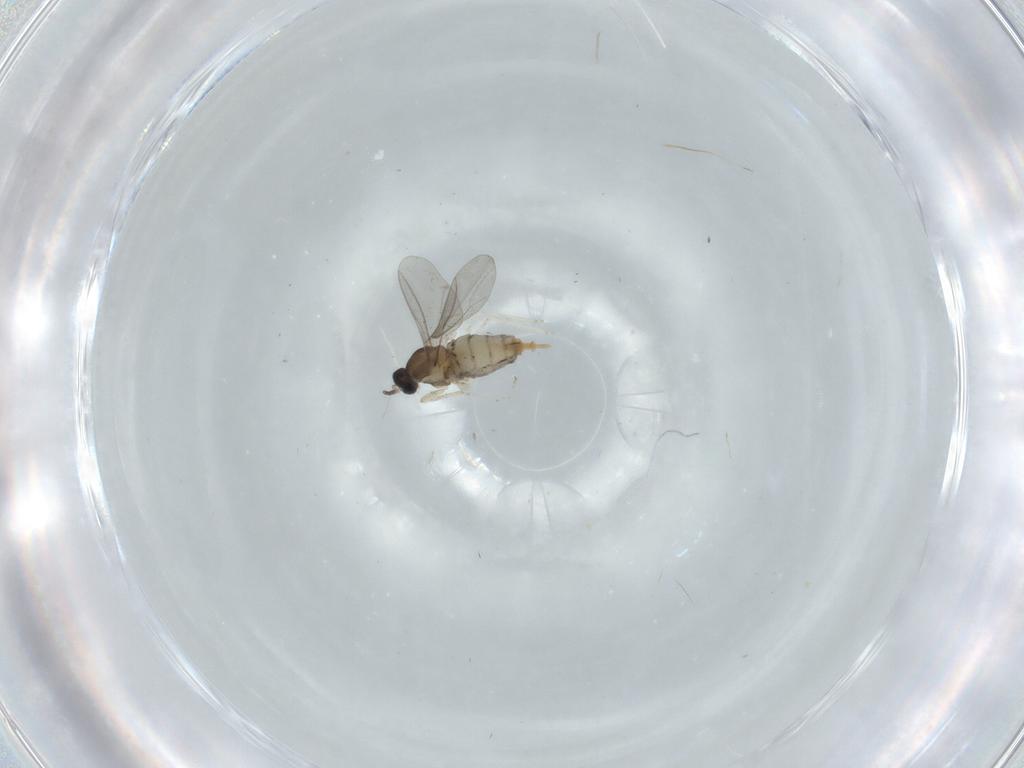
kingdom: Animalia
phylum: Arthropoda
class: Insecta
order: Diptera
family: Cecidomyiidae
